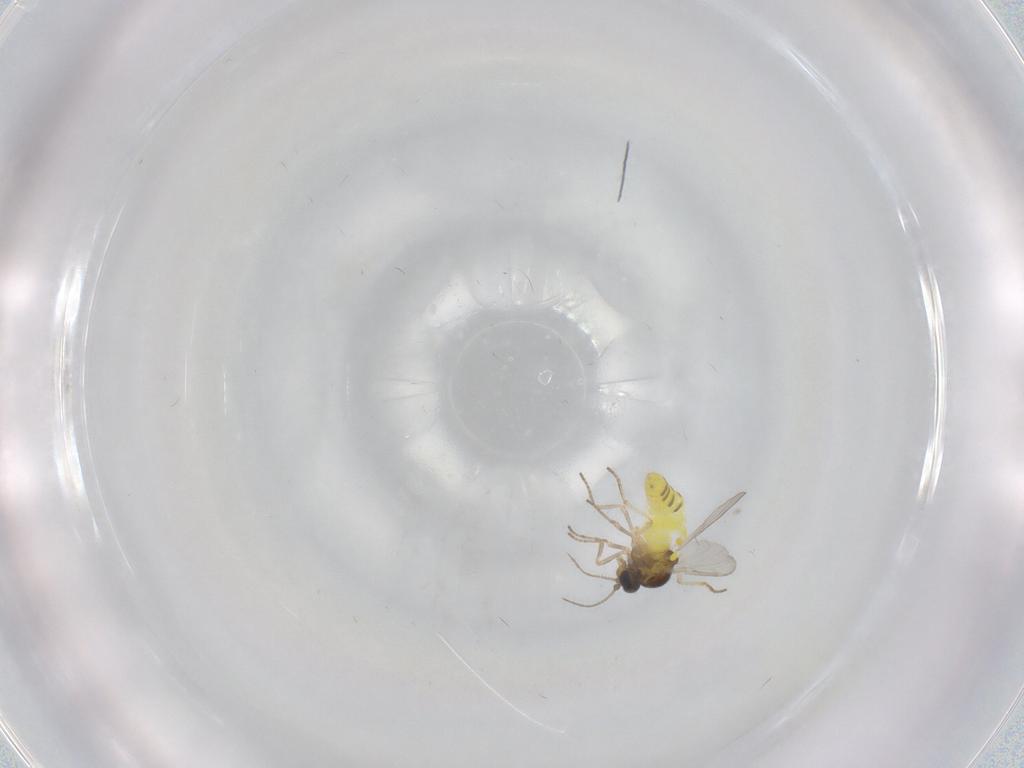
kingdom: Animalia
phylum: Arthropoda
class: Insecta
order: Diptera
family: Ceratopogonidae
